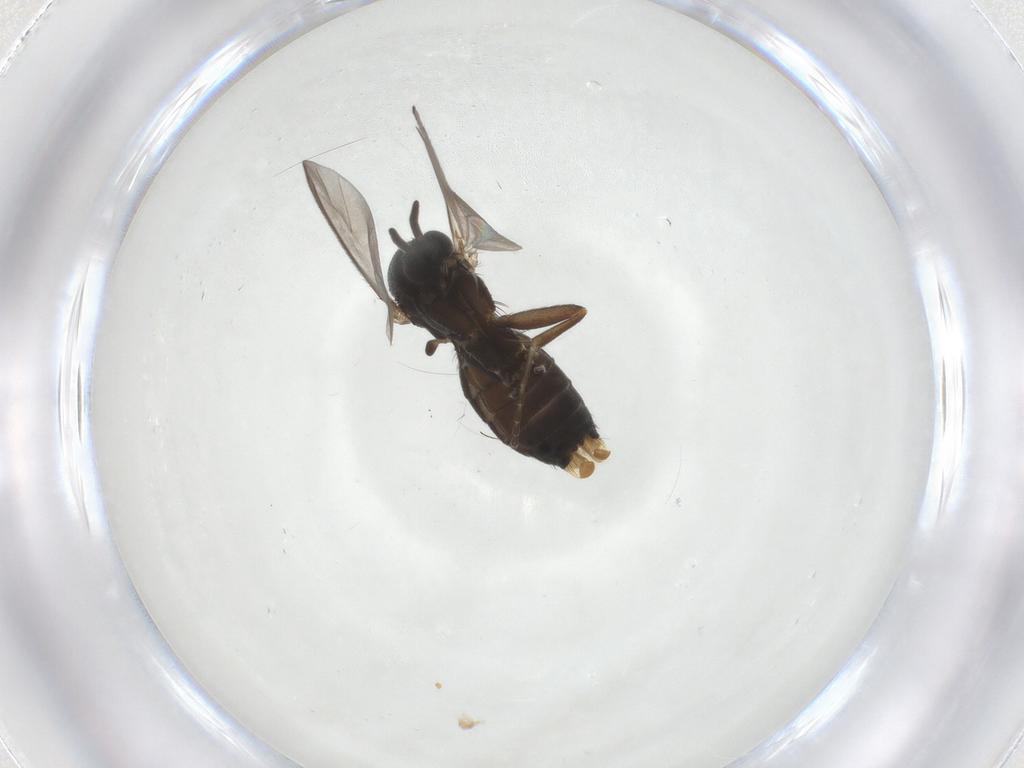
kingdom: Animalia
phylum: Arthropoda
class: Insecta
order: Diptera
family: Mycetophilidae
